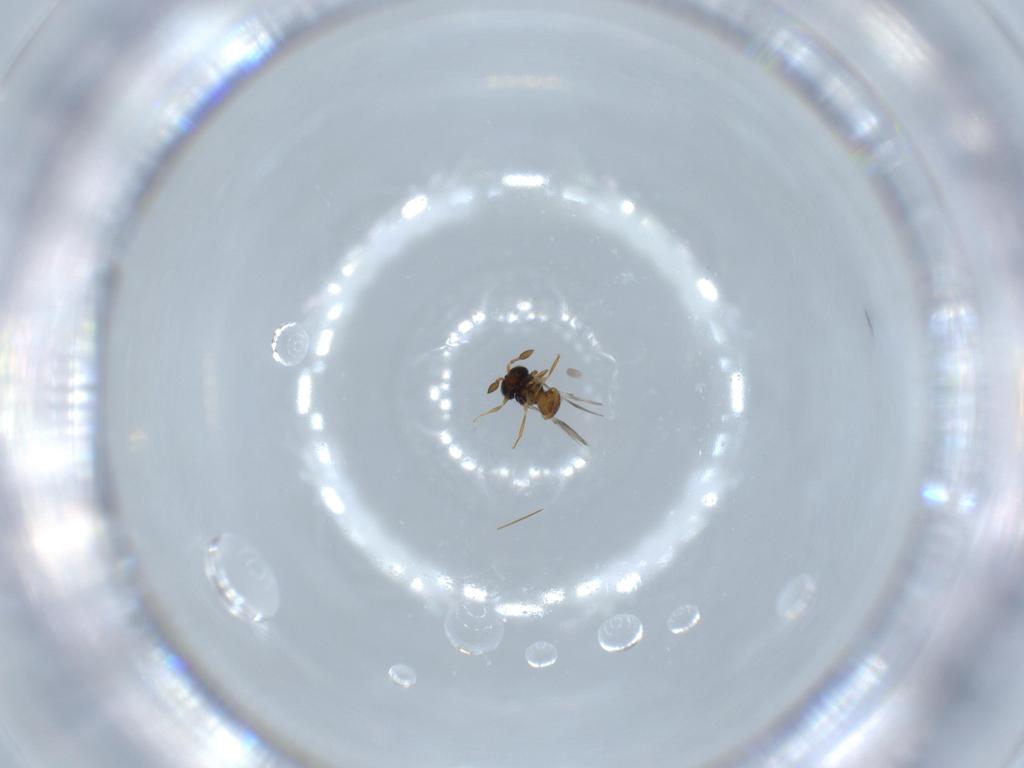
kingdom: Animalia
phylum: Arthropoda
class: Insecta
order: Hymenoptera
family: Scelionidae
